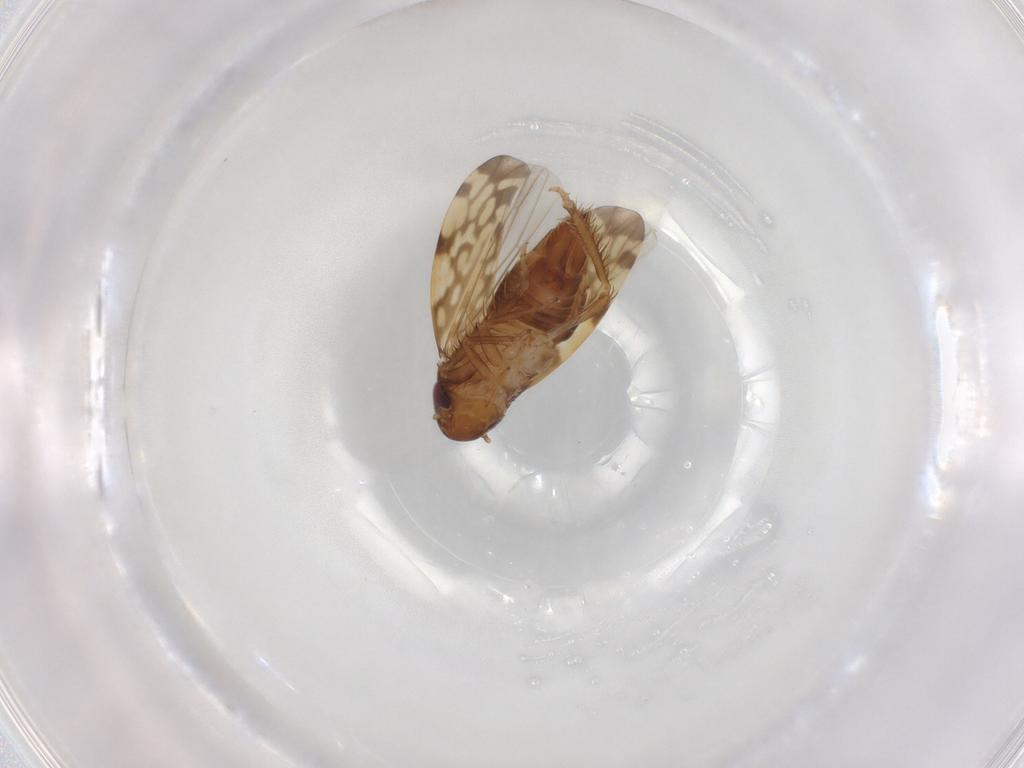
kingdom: Animalia
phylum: Arthropoda
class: Insecta
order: Hemiptera
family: Cicadellidae
